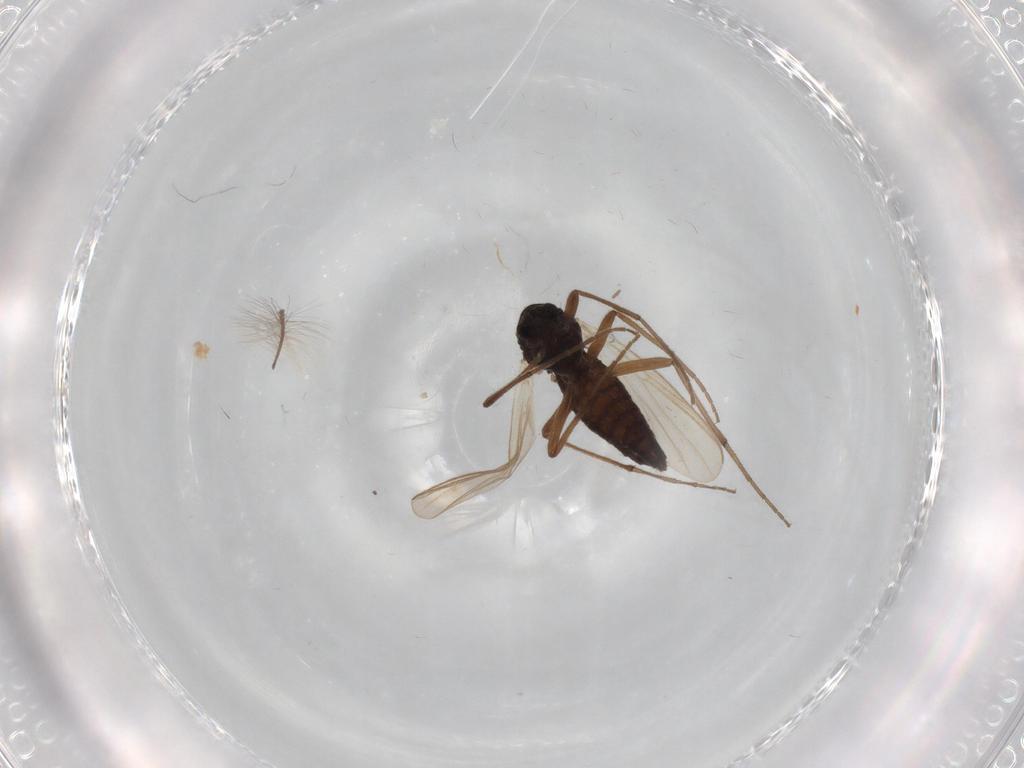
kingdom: Animalia
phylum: Arthropoda
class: Insecta
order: Diptera
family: Chironomidae
